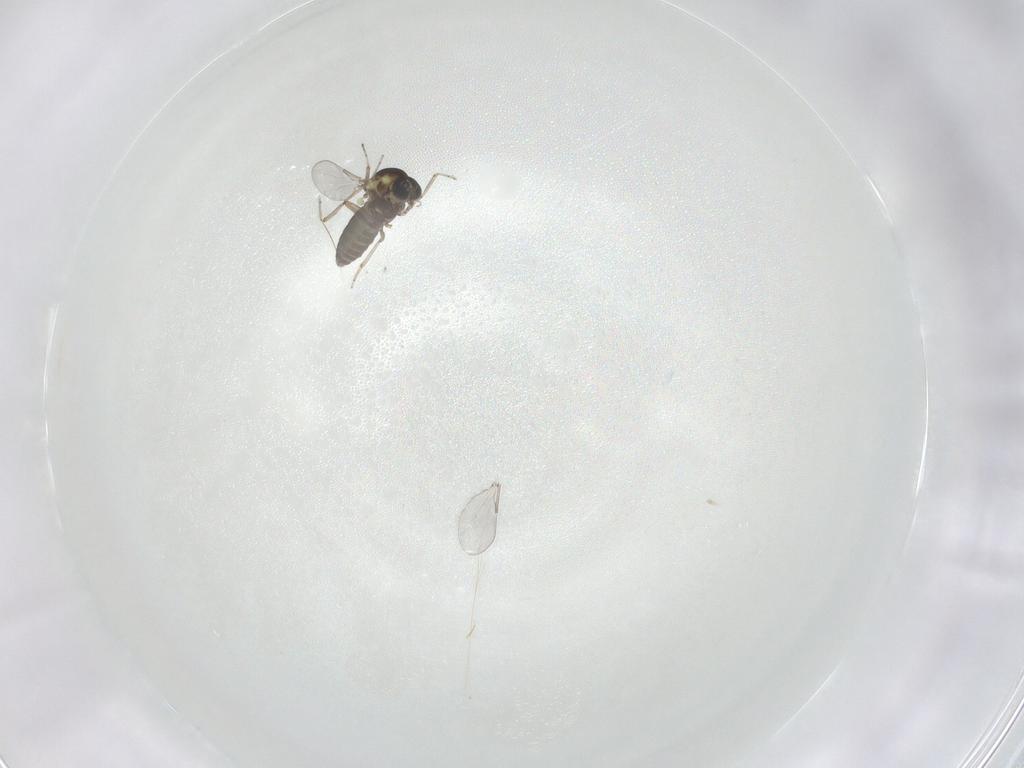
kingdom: Animalia
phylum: Arthropoda
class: Insecta
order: Diptera
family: Ceratopogonidae
